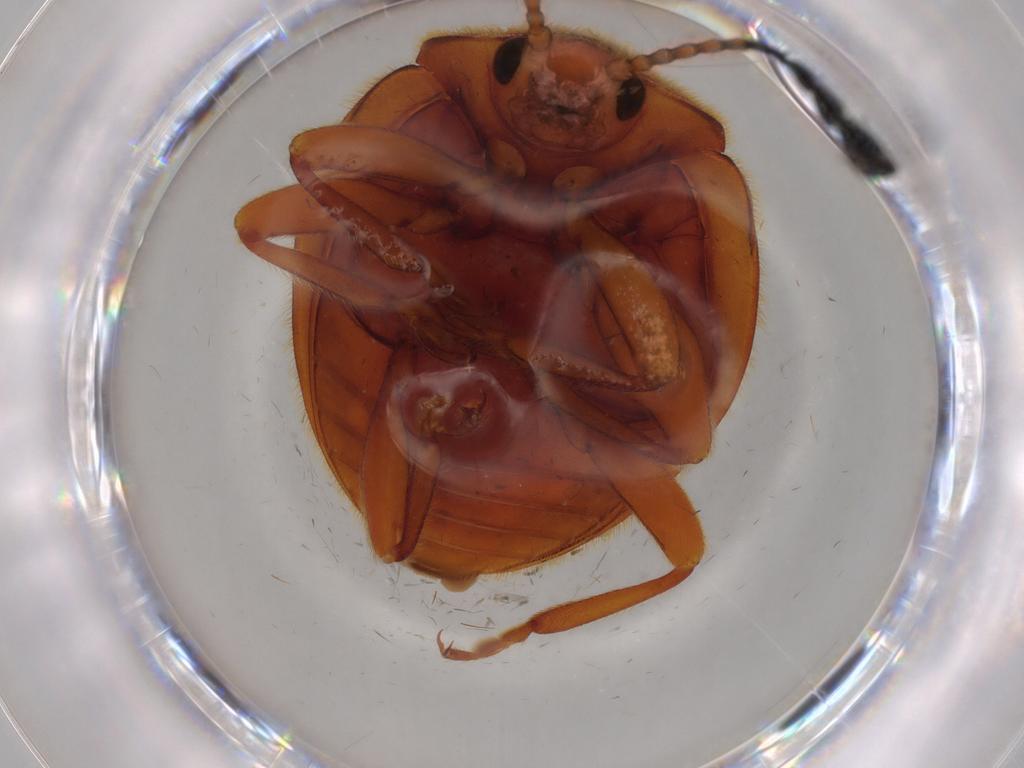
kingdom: Animalia
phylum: Arthropoda
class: Insecta
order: Coleoptera
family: Endomychidae
